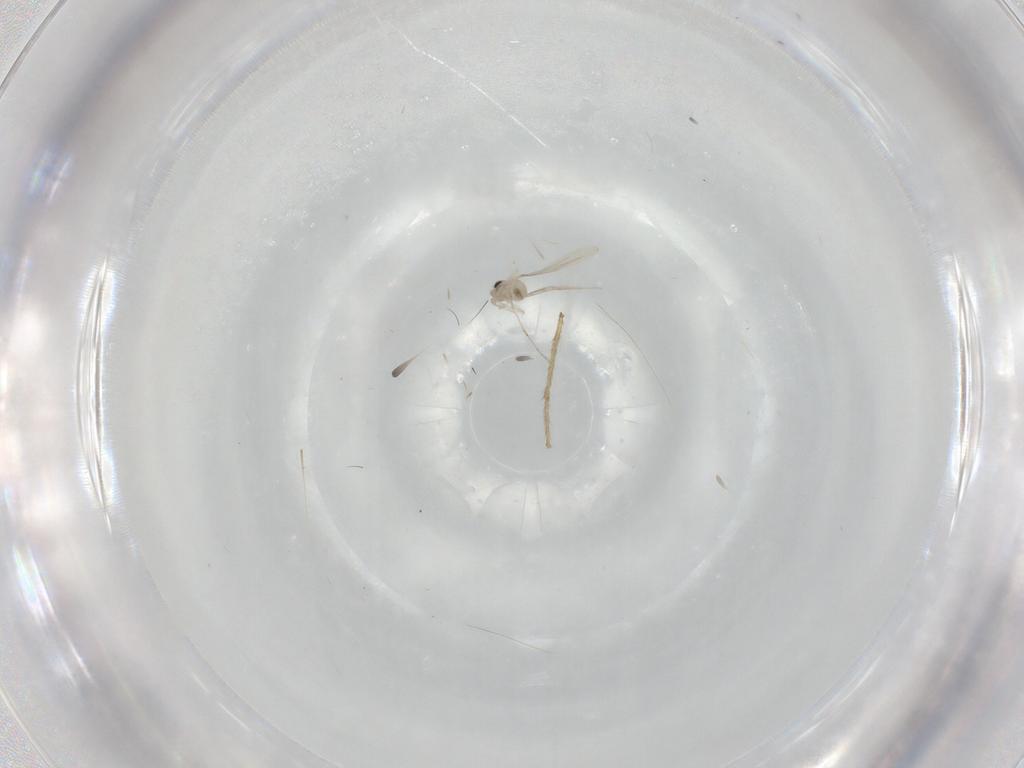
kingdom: Animalia
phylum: Arthropoda
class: Insecta
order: Diptera
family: Cecidomyiidae
